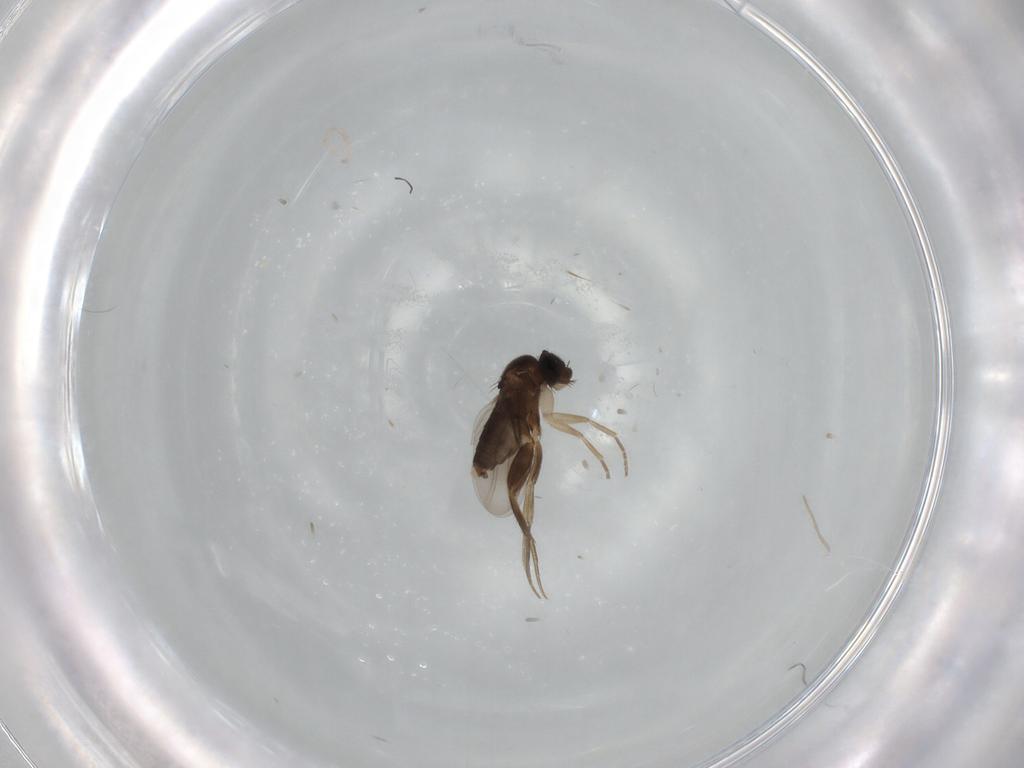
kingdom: Animalia
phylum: Arthropoda
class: Insecta
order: Diptera
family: Phoridae
